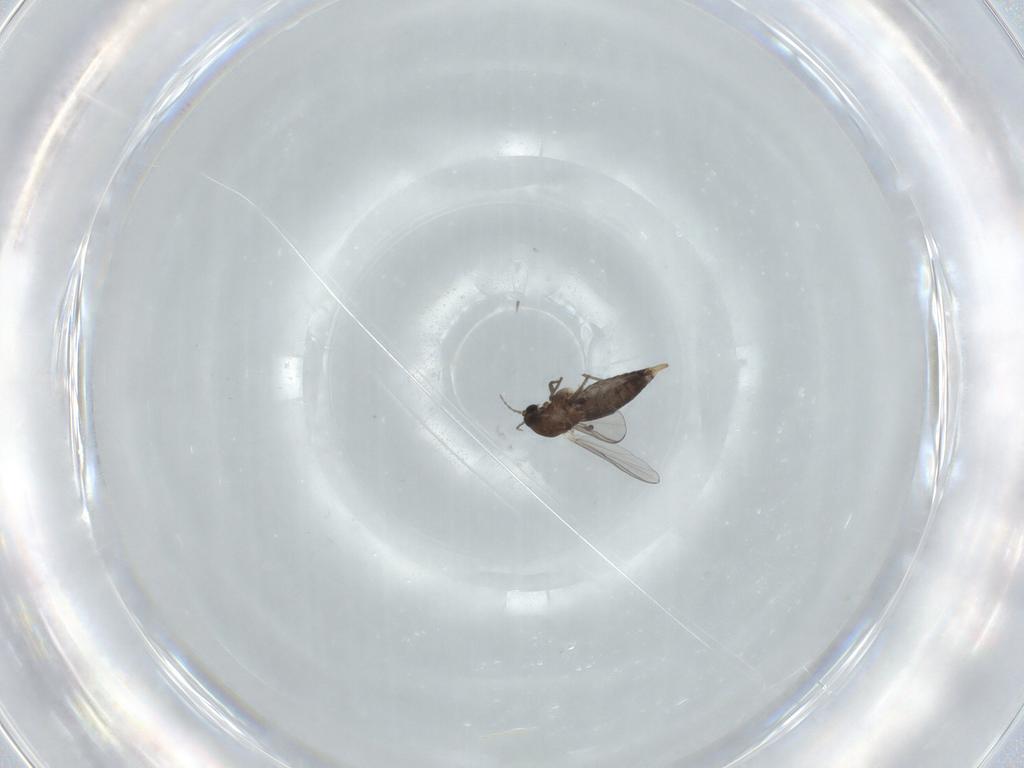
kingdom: Animalia
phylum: Arthropoda
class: Insecta
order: Diptera
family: Chironomidae
